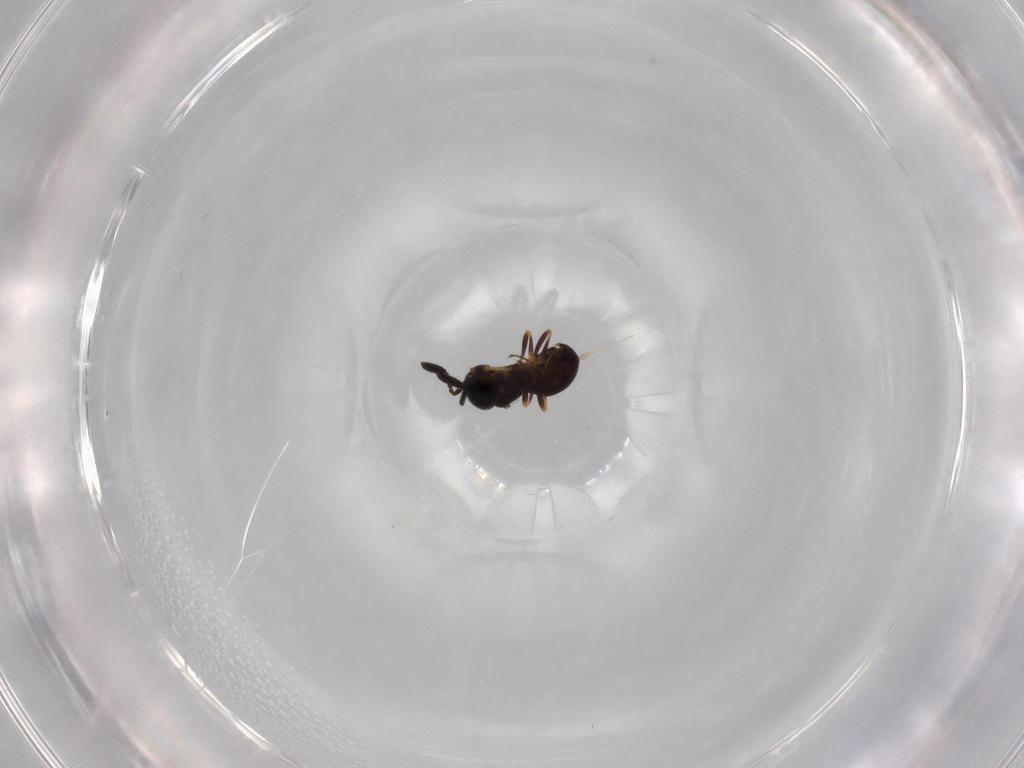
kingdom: Animalia
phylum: Arthropoda
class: Insecta
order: Hymenoptera
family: Scelionidae
